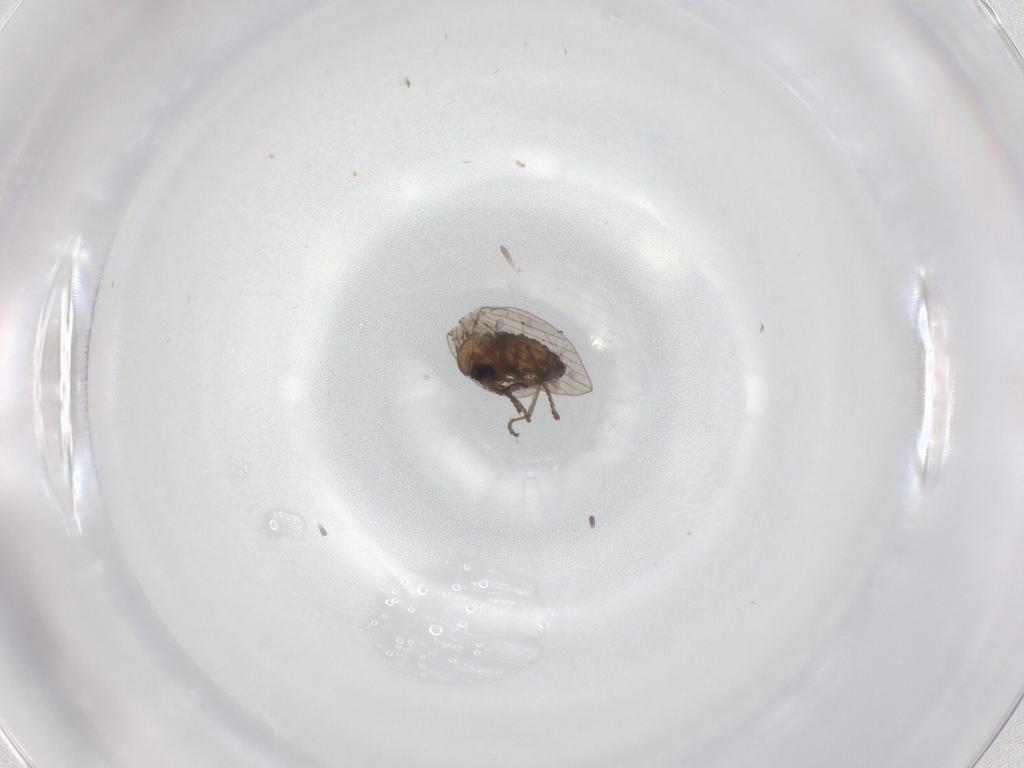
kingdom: Animalia
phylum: Arthropoda
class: Insecta
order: Diptera
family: Psychodidae
